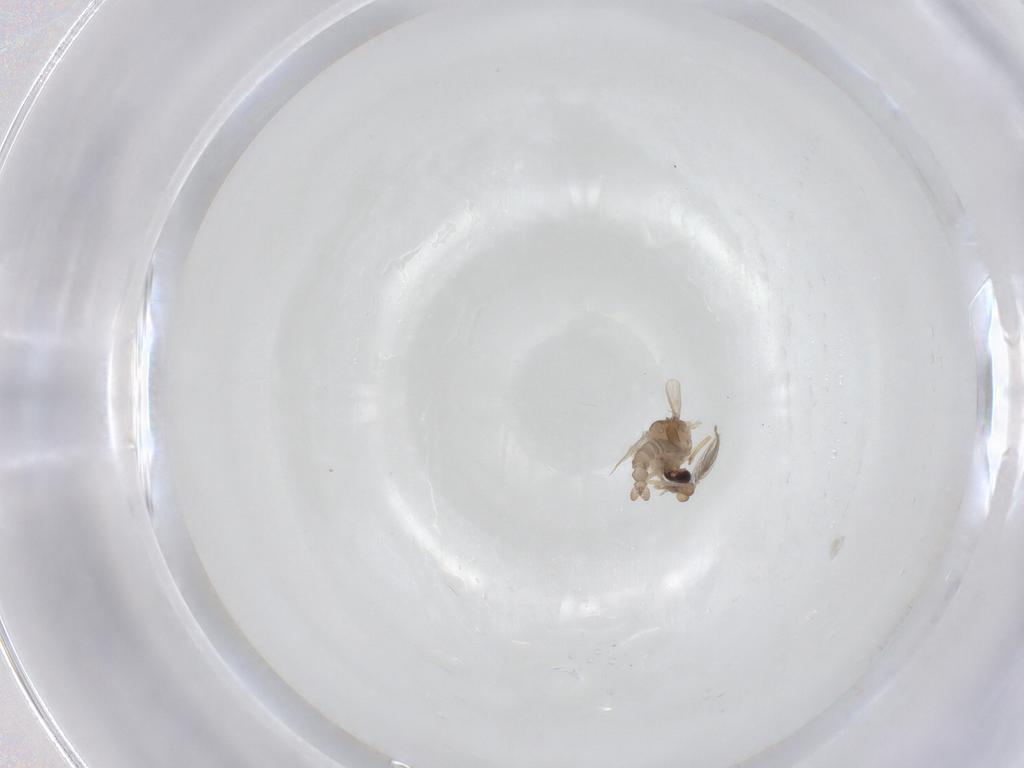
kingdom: Animalia
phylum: Arthropoda
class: Insecta
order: Diptera
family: Ceratopogonidae
